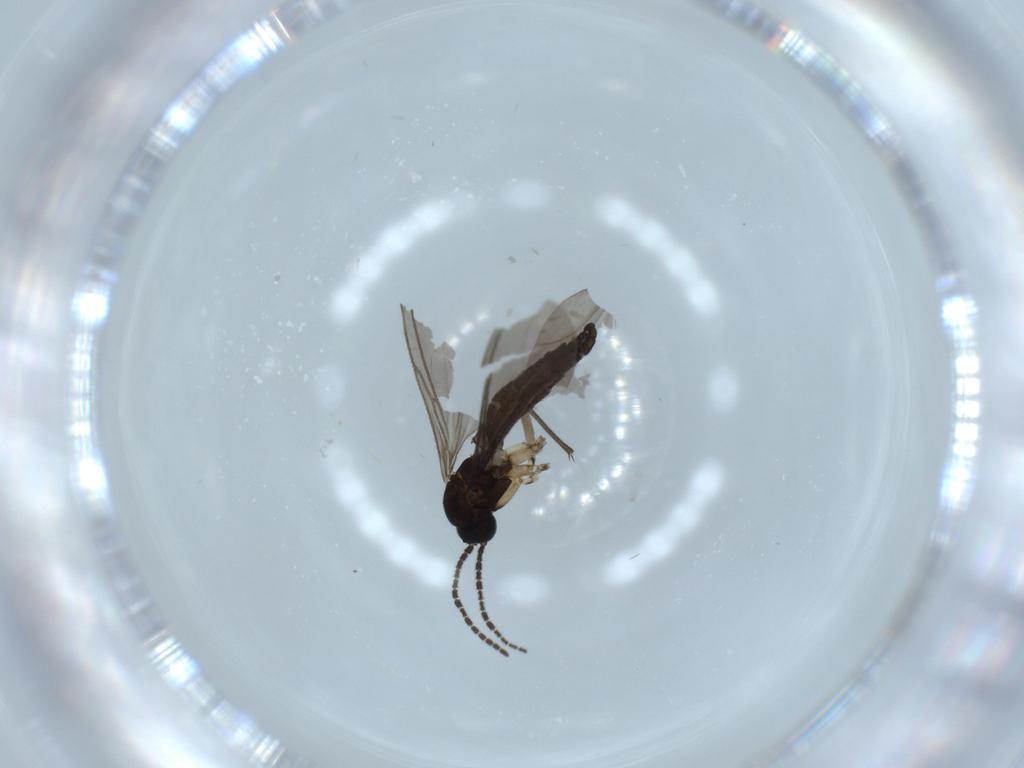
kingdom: Animalia
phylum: Arthropoda
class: Insecta
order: Diptera
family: Sciaridae
